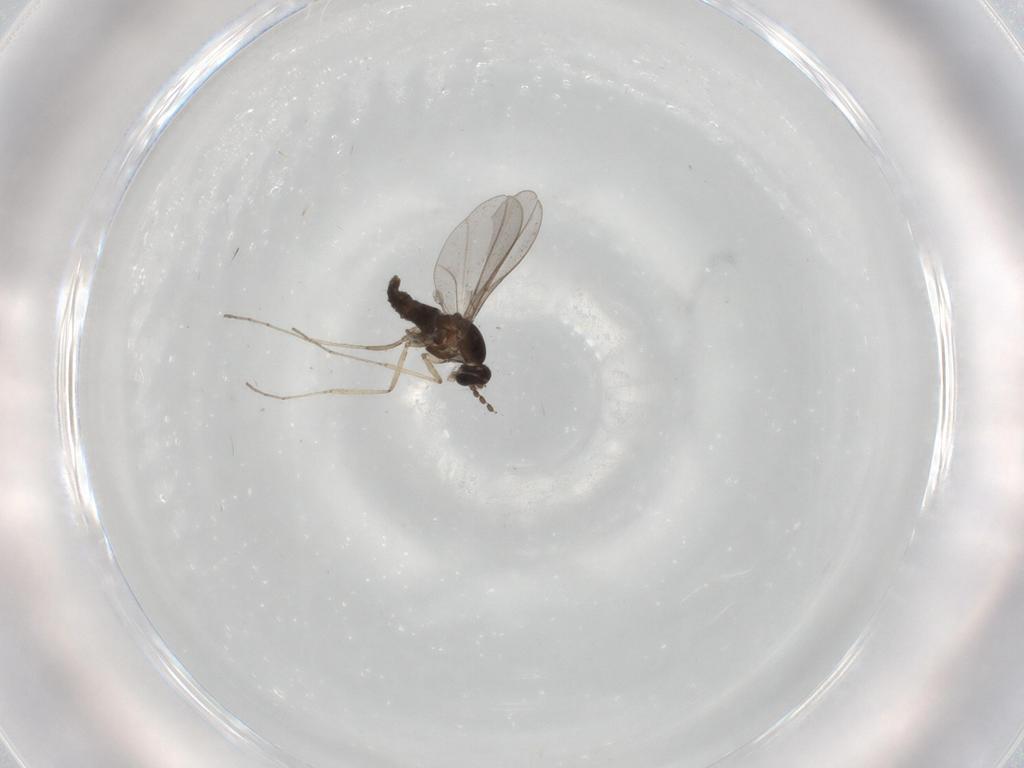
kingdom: Animalia
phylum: Arthropoda
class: Insecta
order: Diptera
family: Cecidomyiidae
